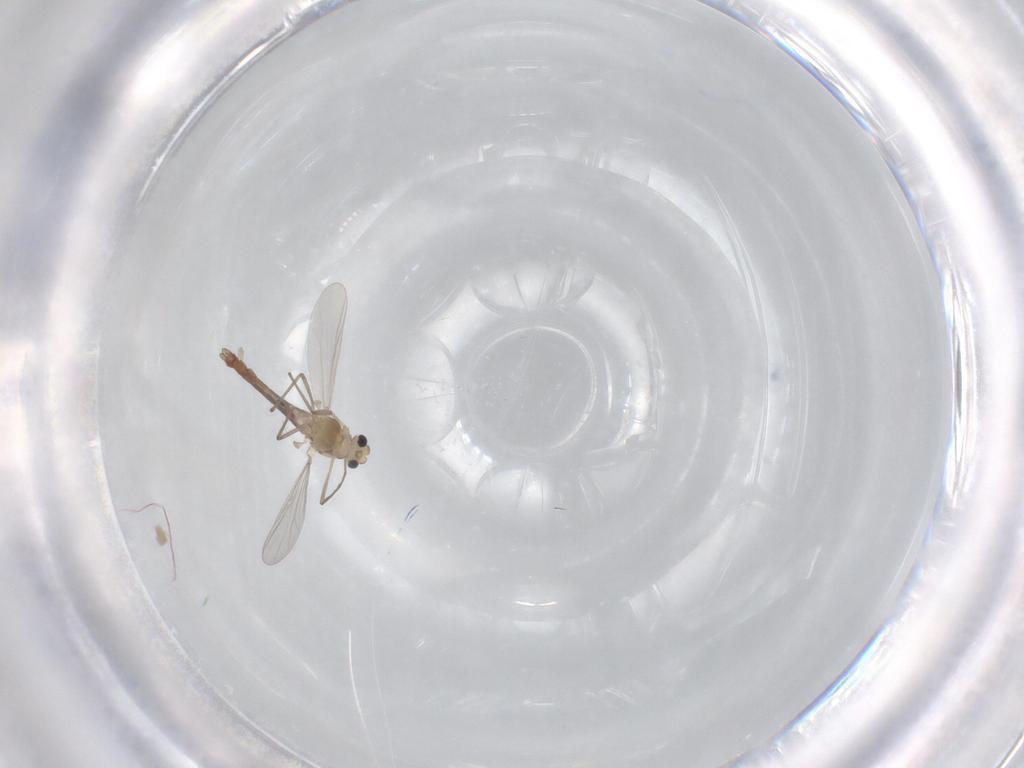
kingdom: Animalia
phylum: Arthropoda
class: Insecta
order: Diptera
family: Chironomidae
